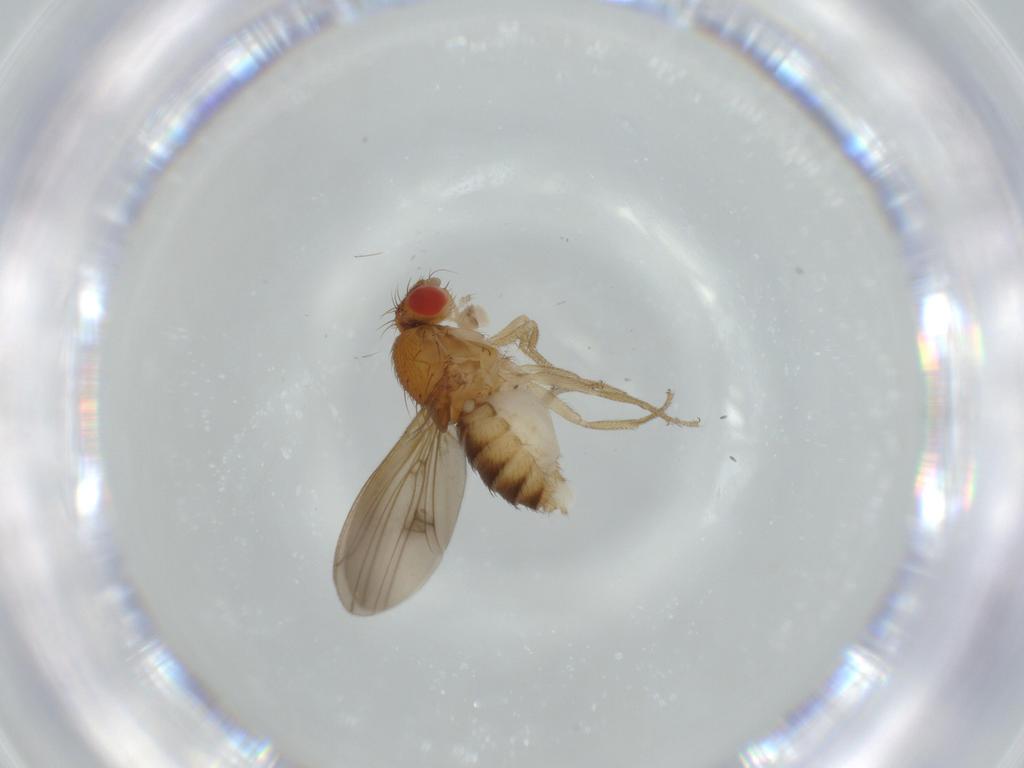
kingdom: Animalia
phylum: Arthropoda
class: Insecta
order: Diptera
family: Drosophilidae
